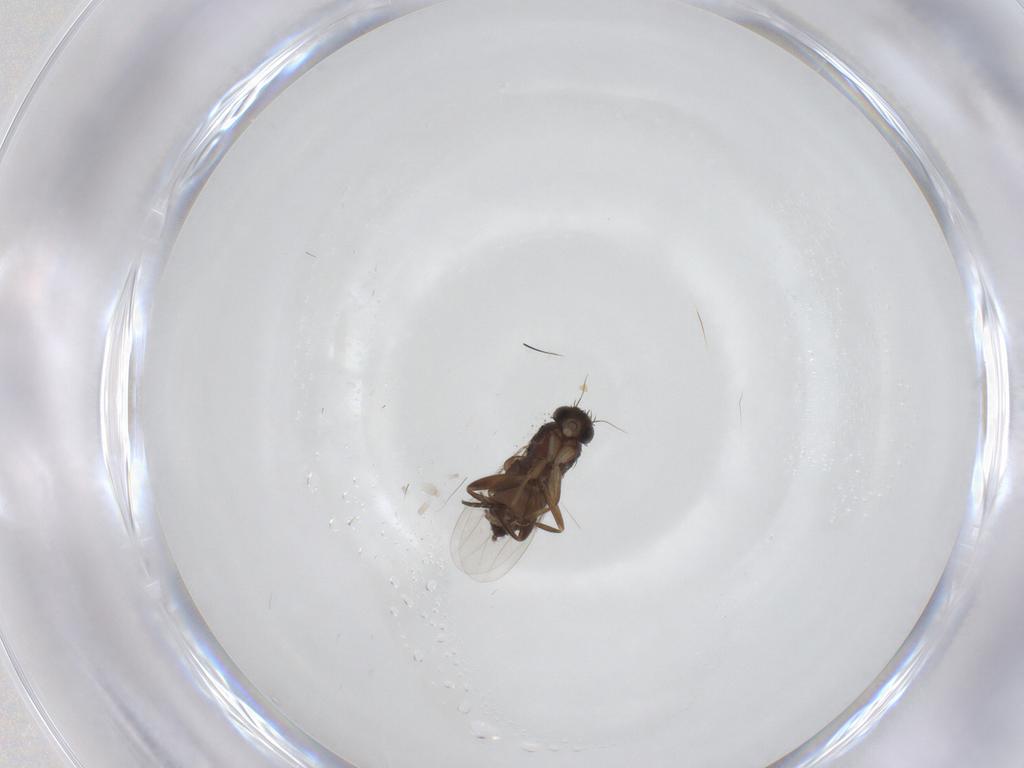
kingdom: Animalia
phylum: Arthropoda
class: Insecta
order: Diptera
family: Phoridae
